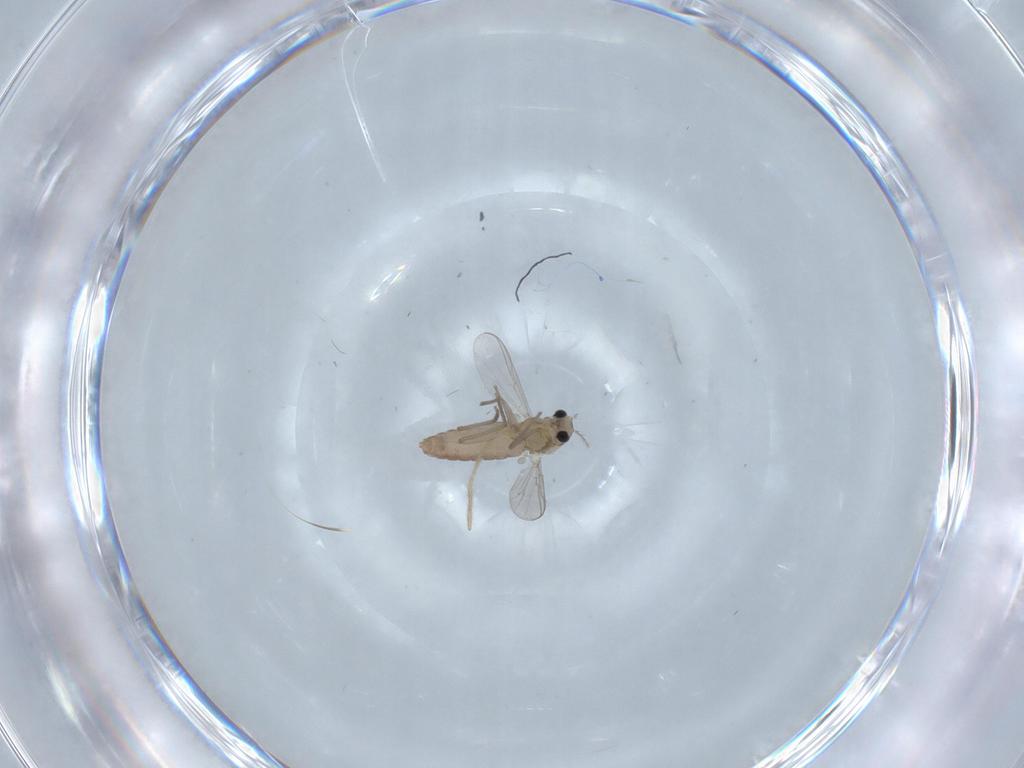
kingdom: Animalia
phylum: Arthropoda
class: Insecta
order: Diptera
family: Chironomidae
